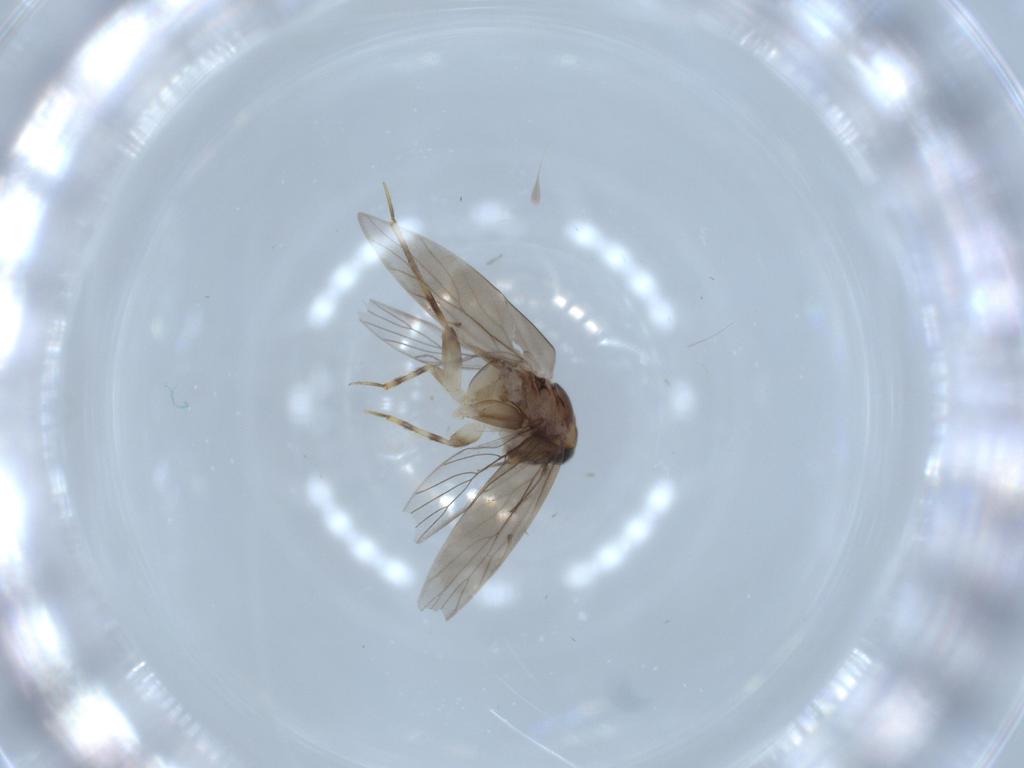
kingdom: Animalia
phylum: Arthropoda
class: Insecta
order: Psocodea
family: Lepidopsocidae
